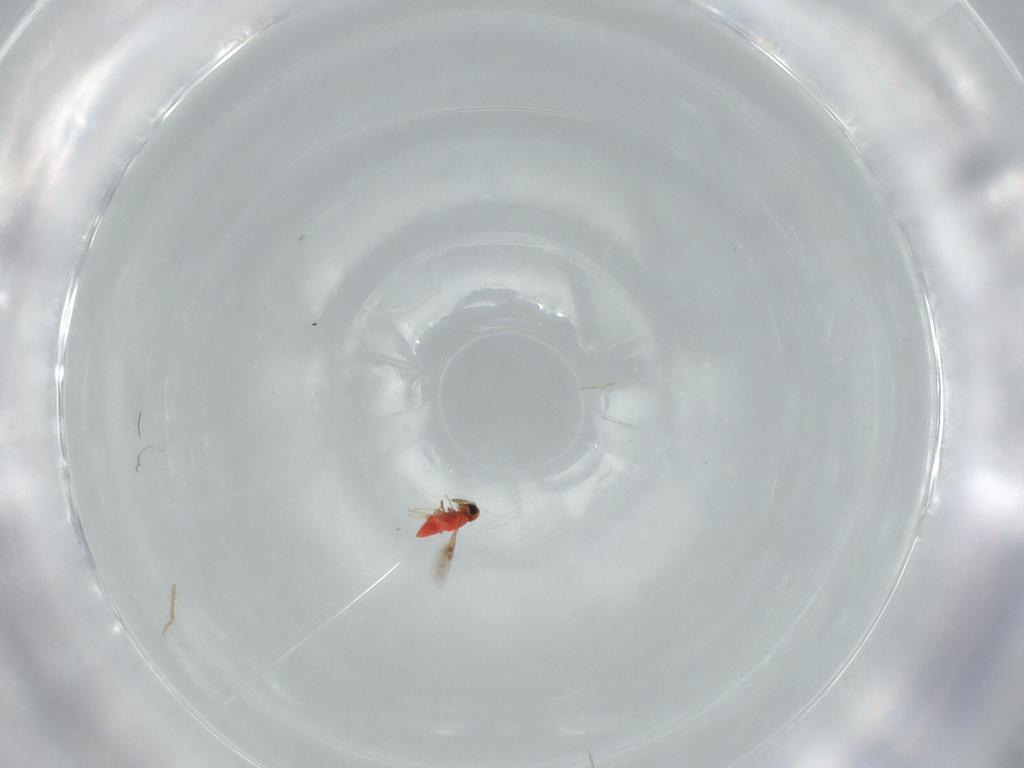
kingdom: Animalia
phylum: Arthropoda
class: Insecta
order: Hymenoptera
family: Trichogrammatidae
